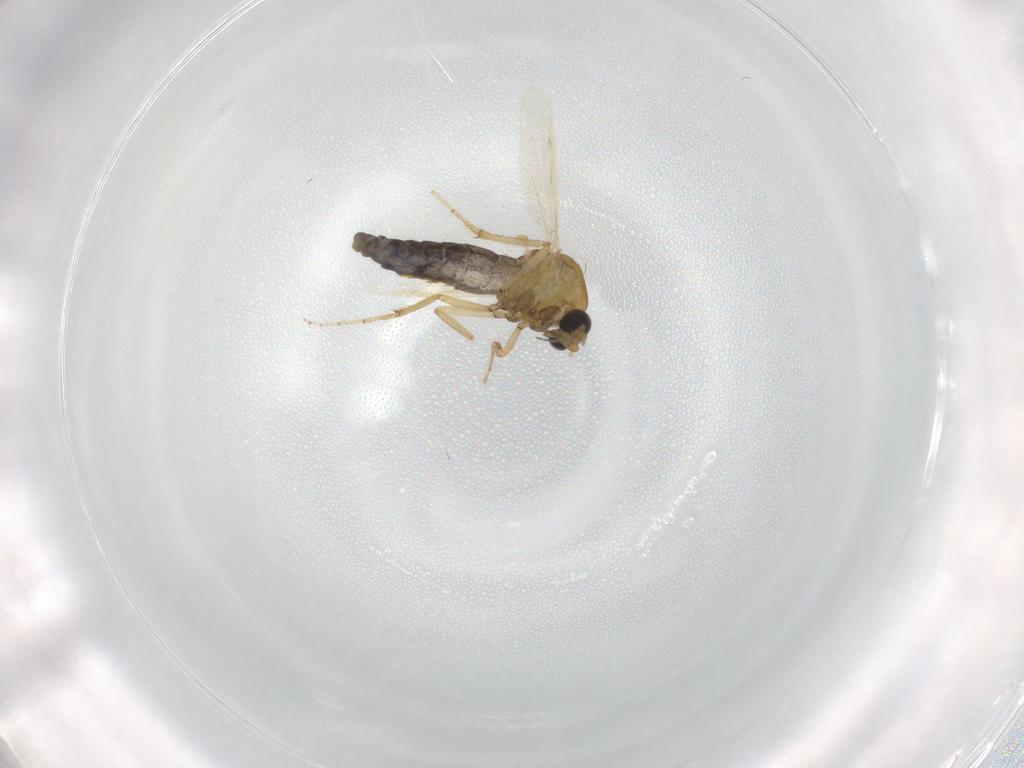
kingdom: Animalia
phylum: Arthropoda
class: Insecta
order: Diptera
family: Ceratopogonidae
